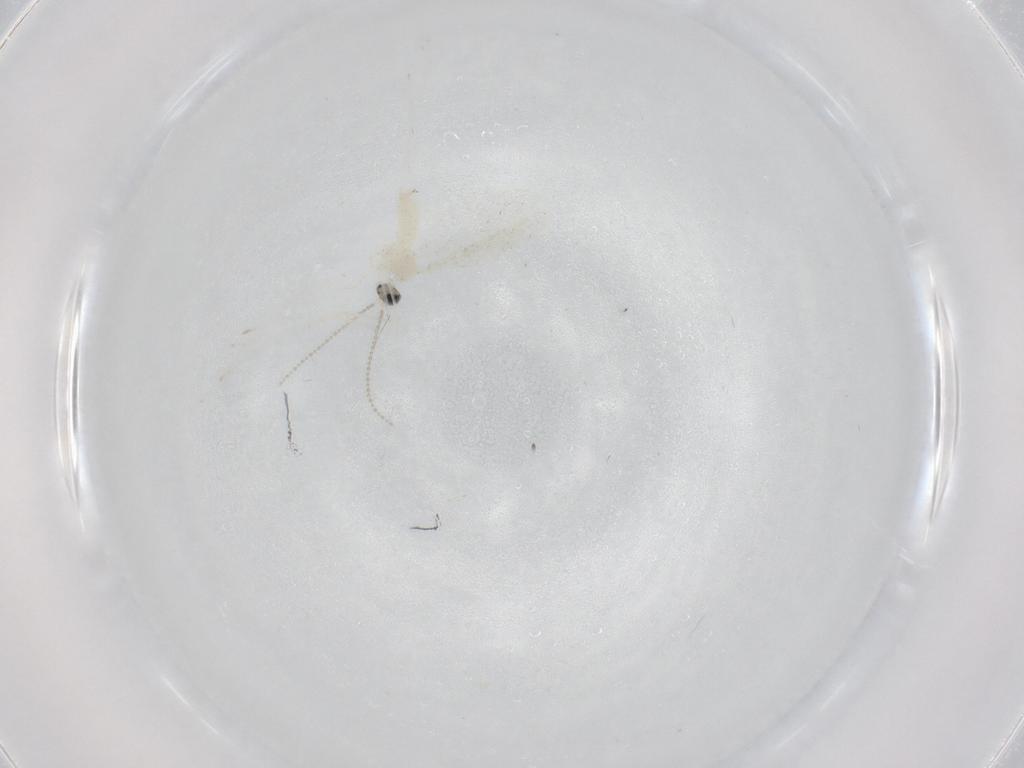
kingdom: Animalia
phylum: Arthropoda
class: Insecta
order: Diptera
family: Cecidomyiidae
